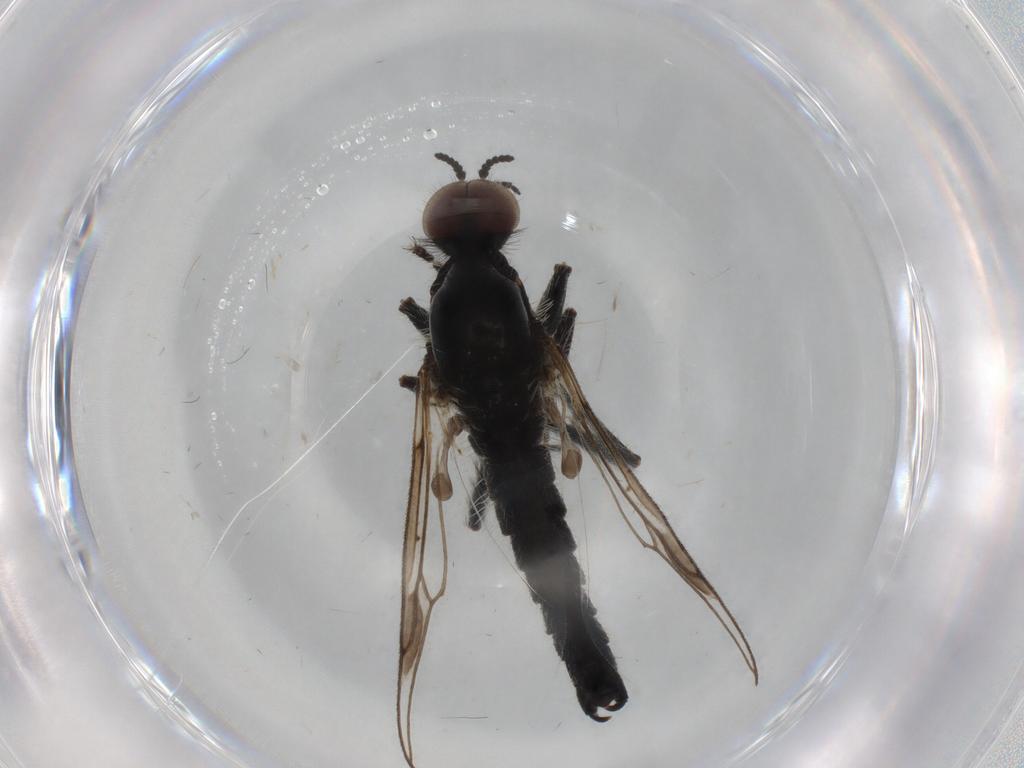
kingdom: Animalia
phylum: Arthropoda
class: Insecta
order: Diptera
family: Bibionidae
